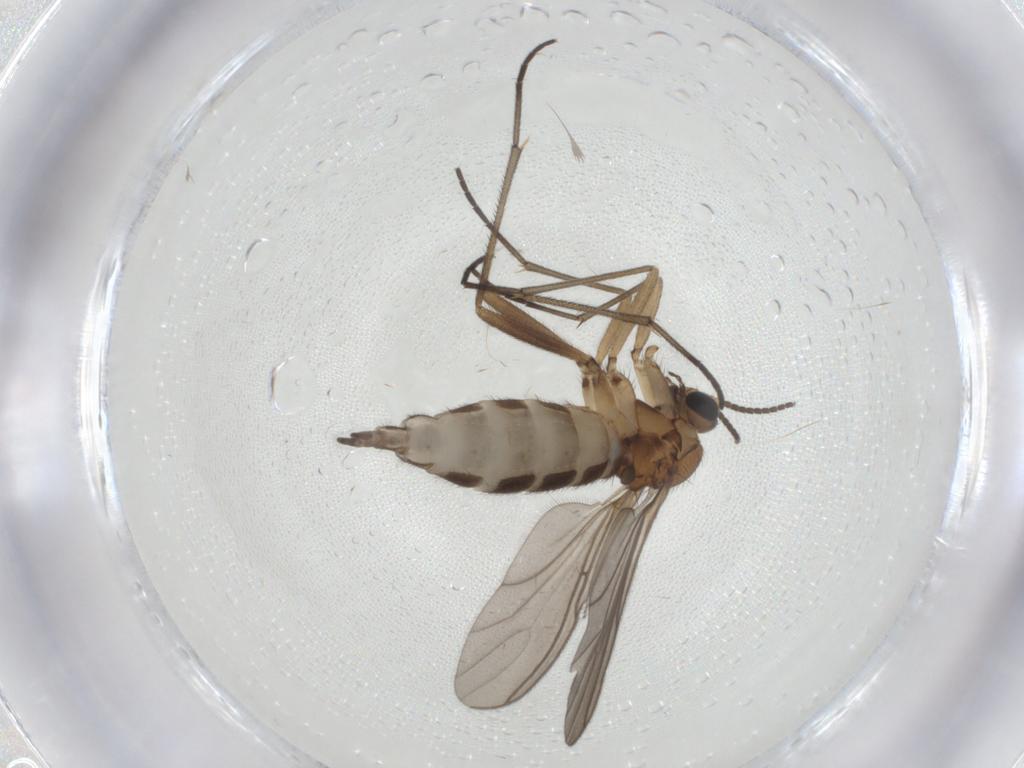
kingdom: Animalia
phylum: Arthropoda
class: Insecta
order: Diptera
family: Sciaridae
